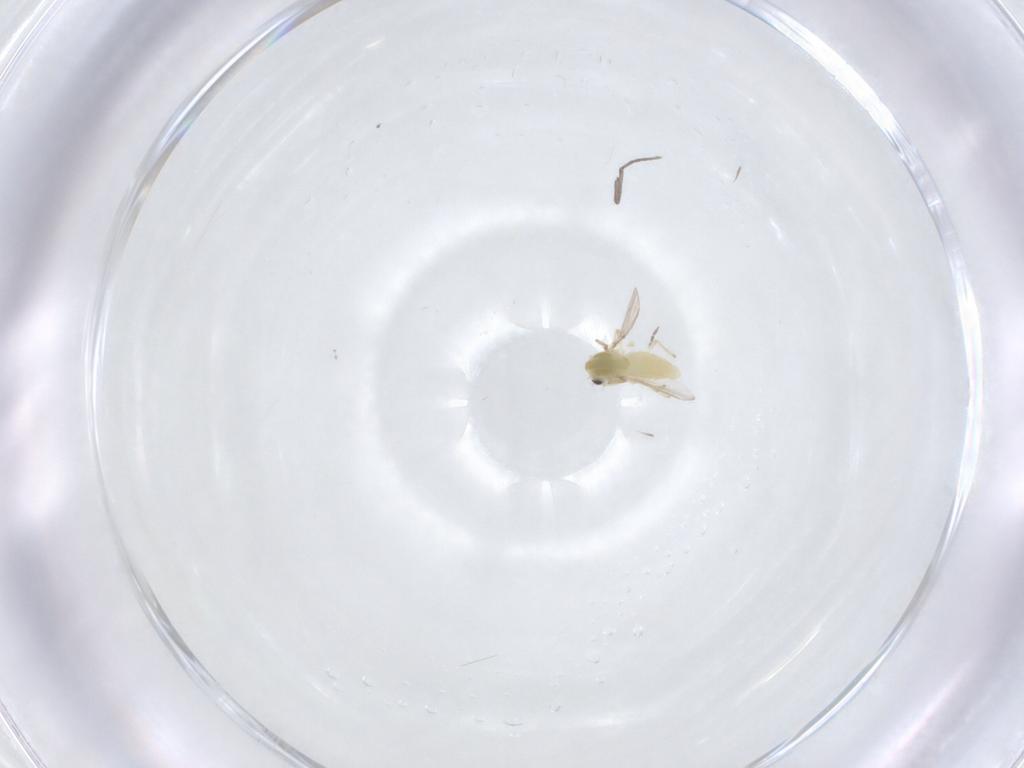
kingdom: Animalia
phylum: Arthropoda
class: Insecta
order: Diptera
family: Sciaridae
